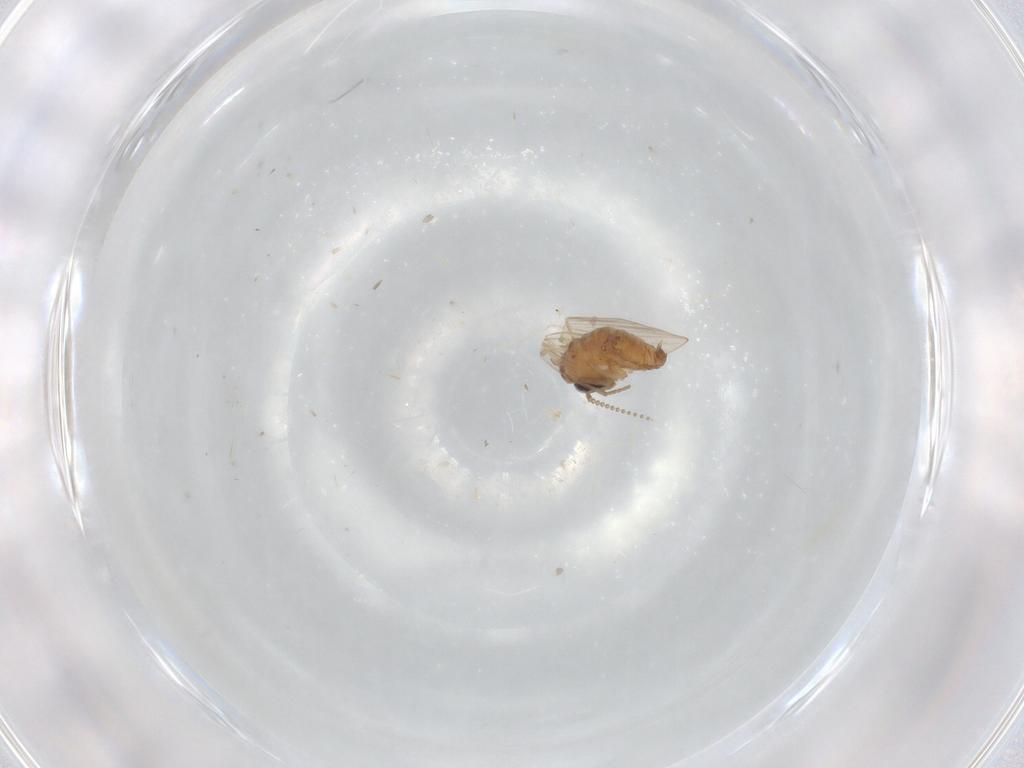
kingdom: Animalia
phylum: Arthropoda
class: Insecta
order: Diptera
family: Psychodidae
